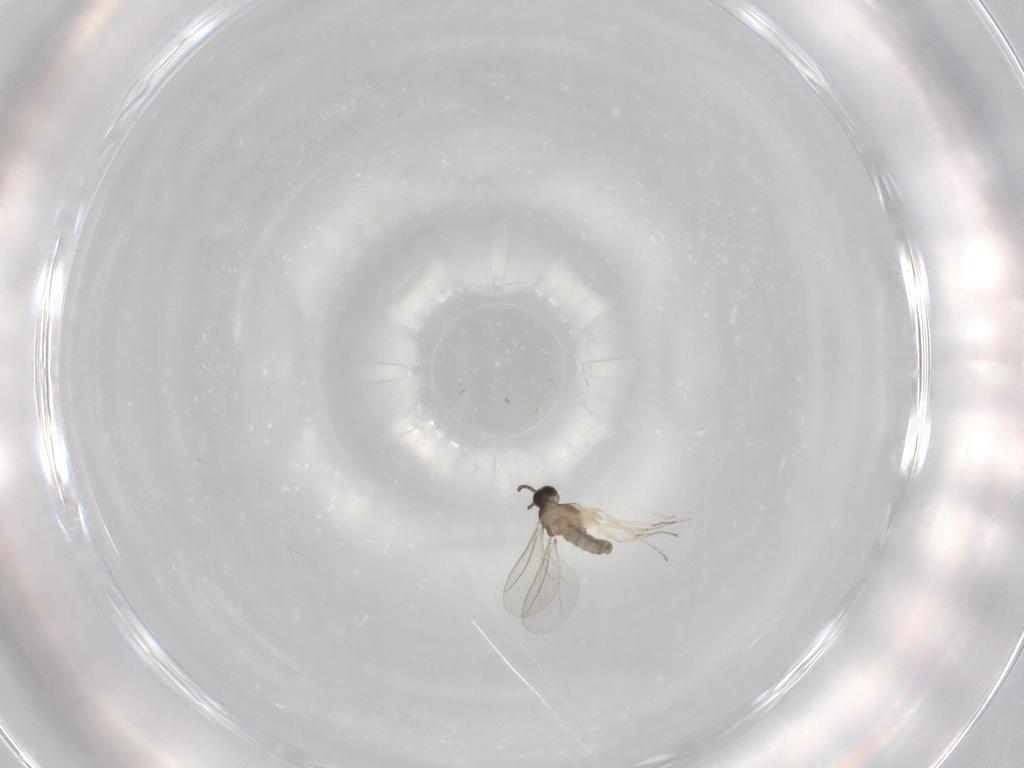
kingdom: Animalia
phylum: Arthropoda
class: Insecta
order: Diptera
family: Cecidomyiidae
